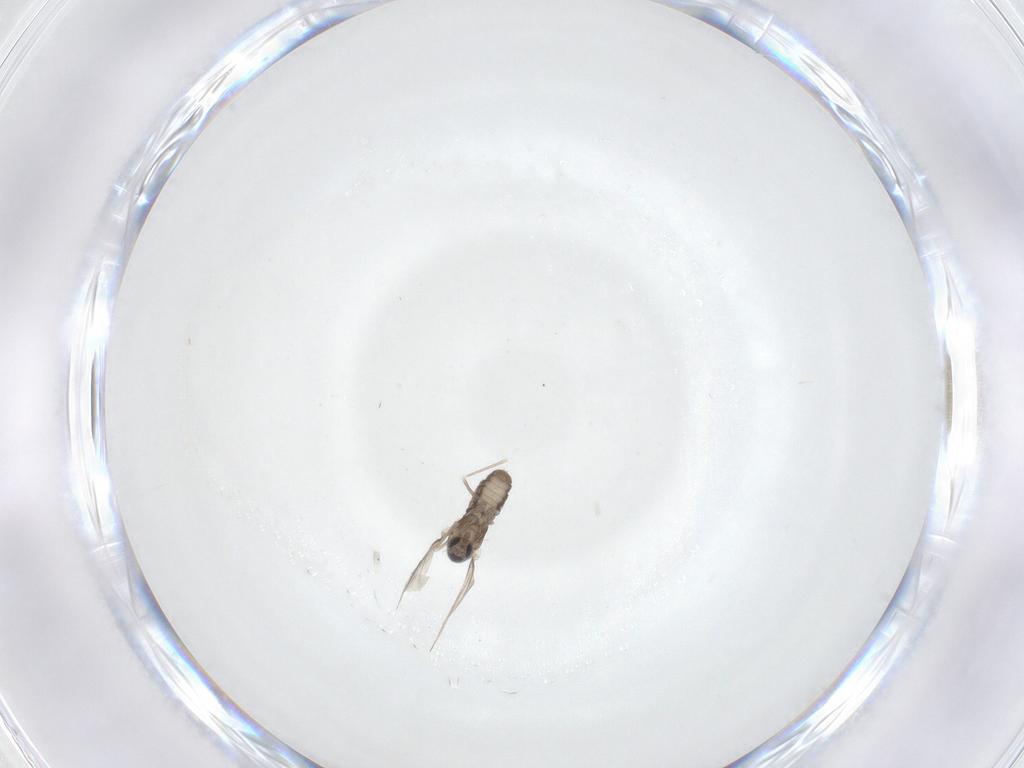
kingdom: Animalia
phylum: Arthropoda
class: Insecta
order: Diptera
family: Cecidomyiidae
